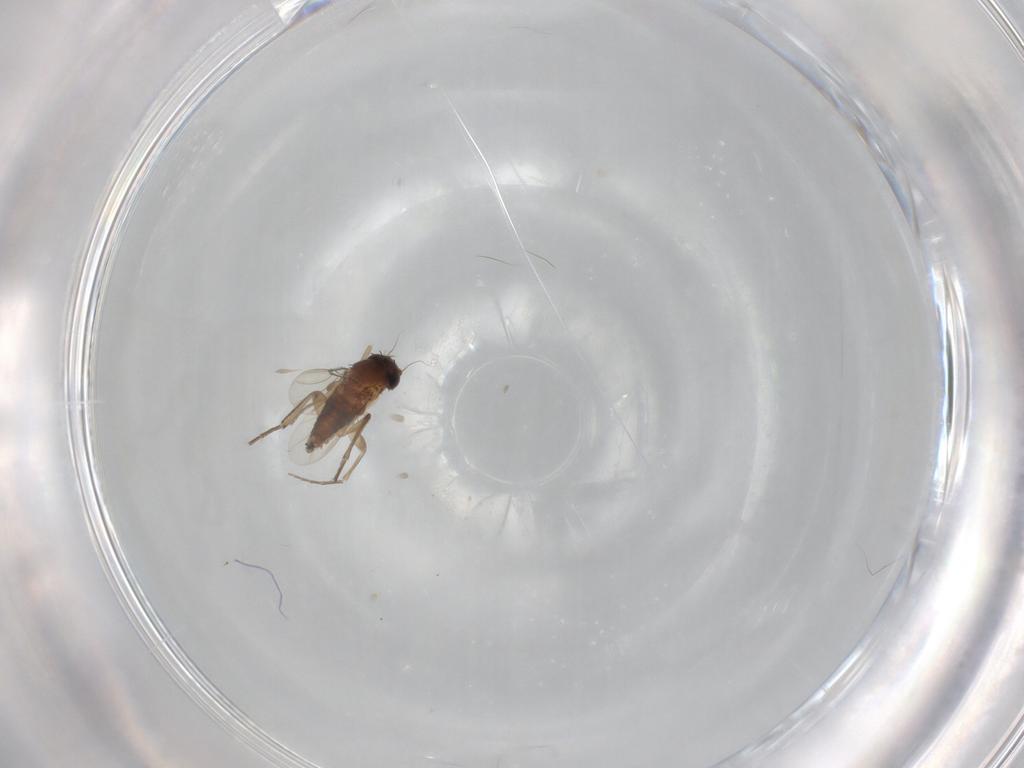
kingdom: Animalia
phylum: Arthropoda
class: Insecta
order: Diptera
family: Phoridae
